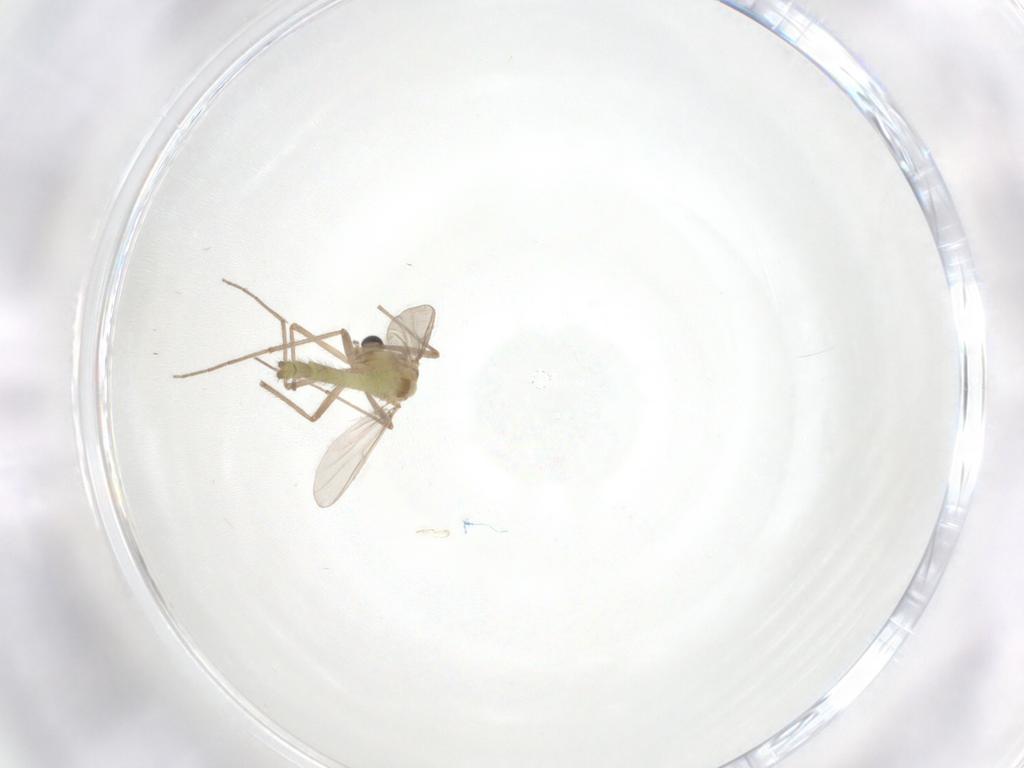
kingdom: Animalia
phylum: Arthropoda
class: Insecta
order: Diptera
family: Chironomidae
